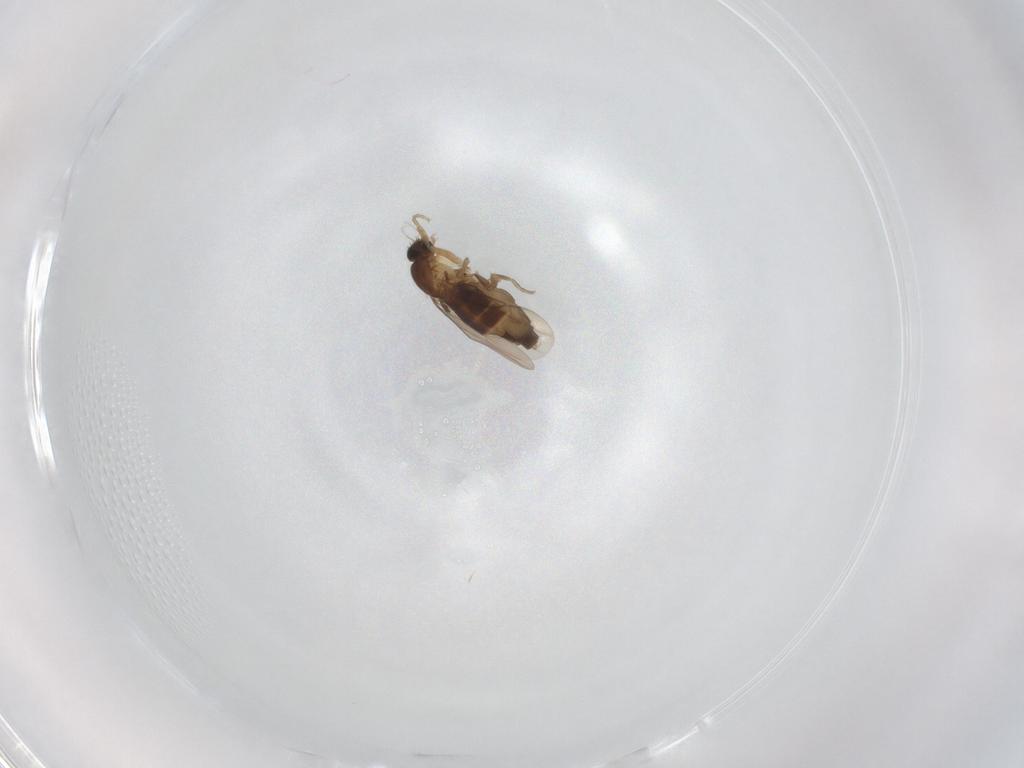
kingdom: Animalia
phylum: Arthropoda
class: Insecta
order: Diptera
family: Phoridae
